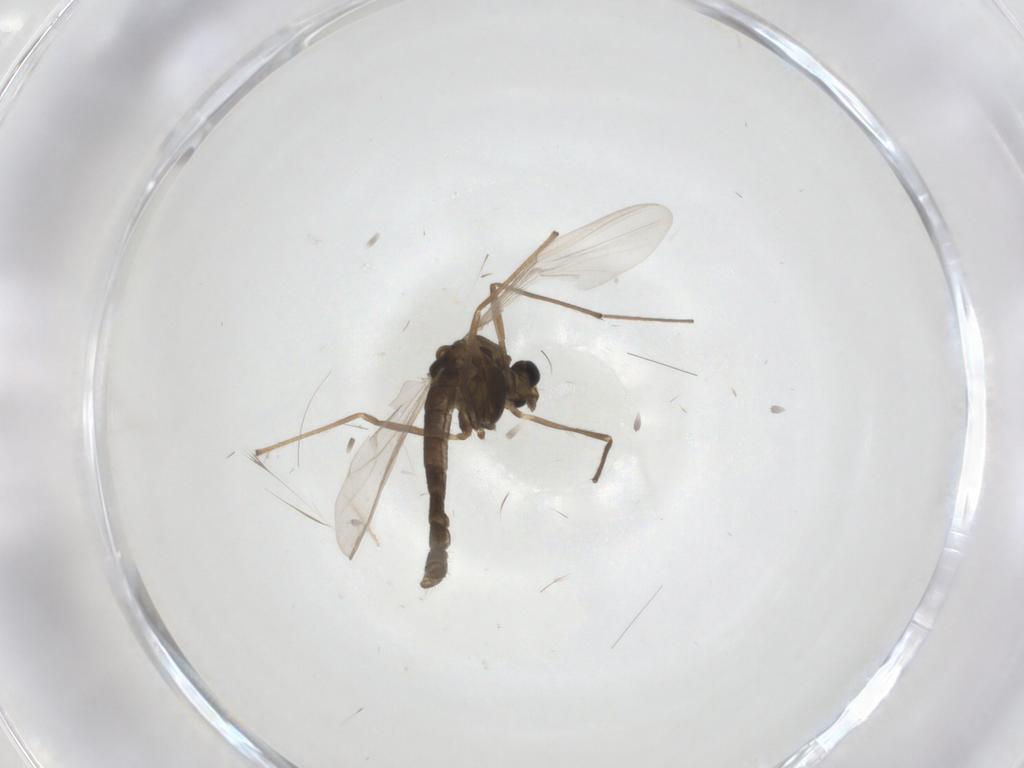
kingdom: Animalia
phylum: Arthropoda
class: Insecta
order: Diptera
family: Chironomidae
